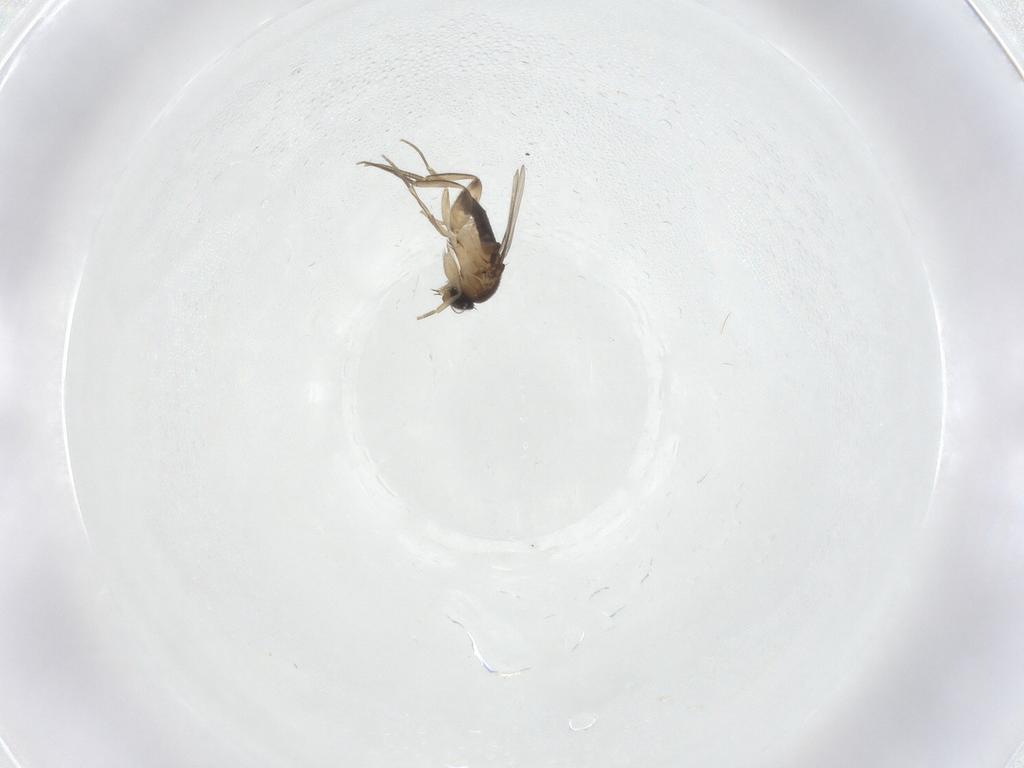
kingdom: Animalia
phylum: Arthropoda
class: Insecta
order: Diptera
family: Phoridae
